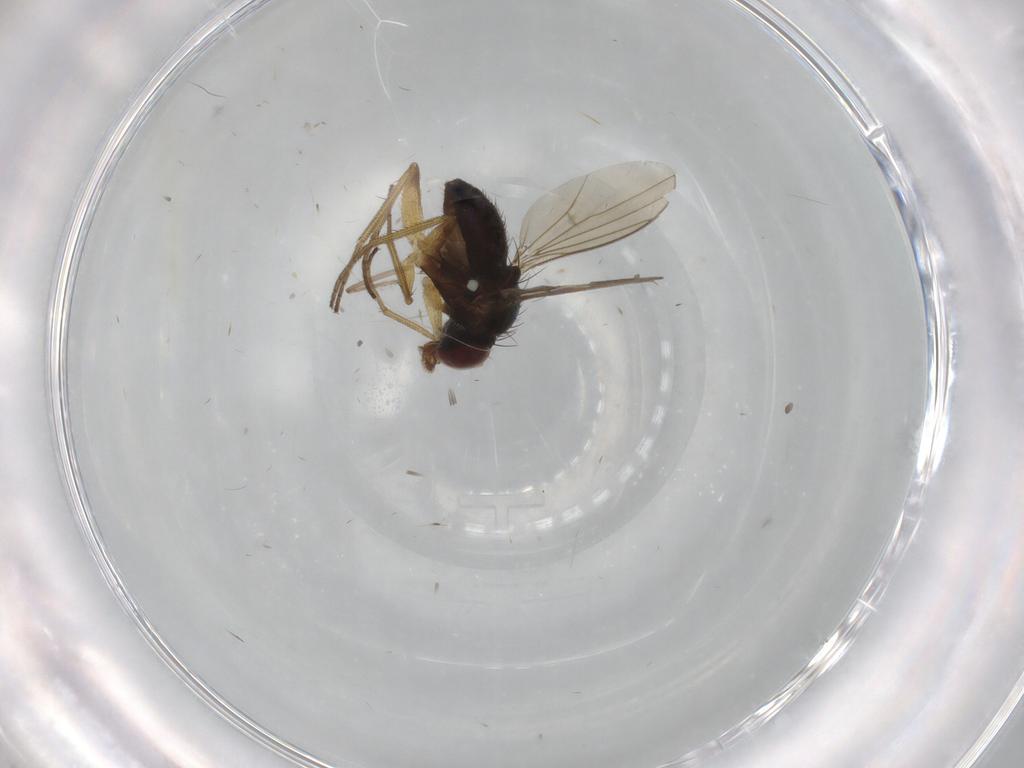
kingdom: Animalia
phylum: Arthropoda
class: Insecta
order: Diptera
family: Dolichopodidae
